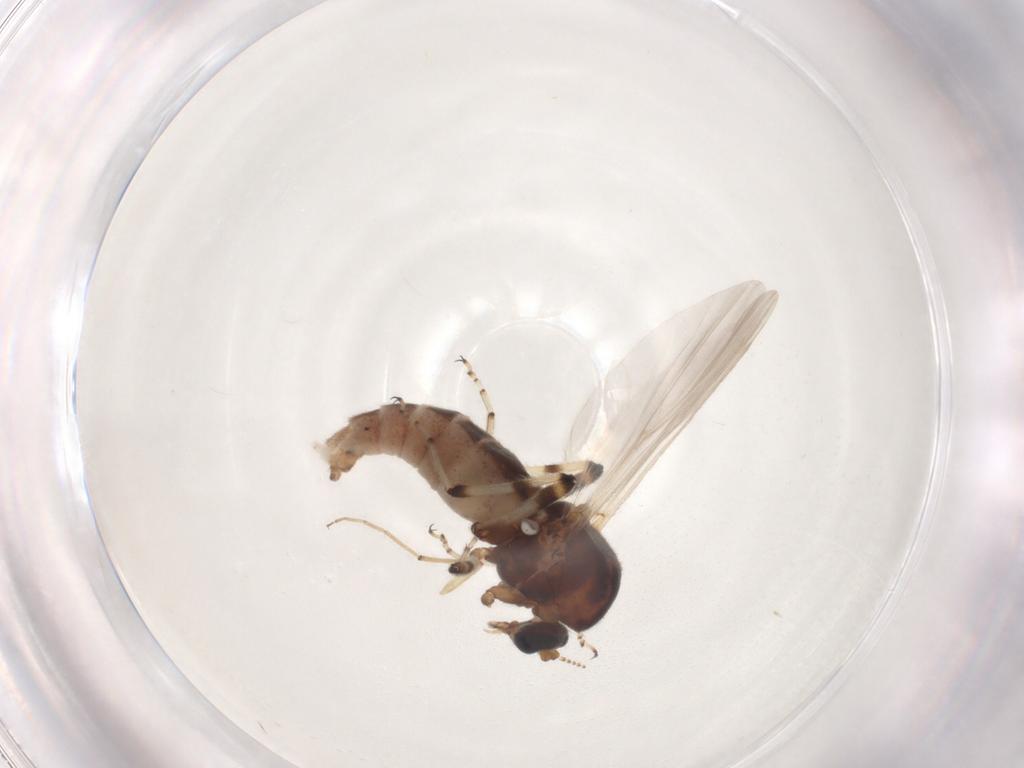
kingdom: Animalia
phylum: Arthropoda
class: Insecta
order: Diptera
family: Chironomidae
